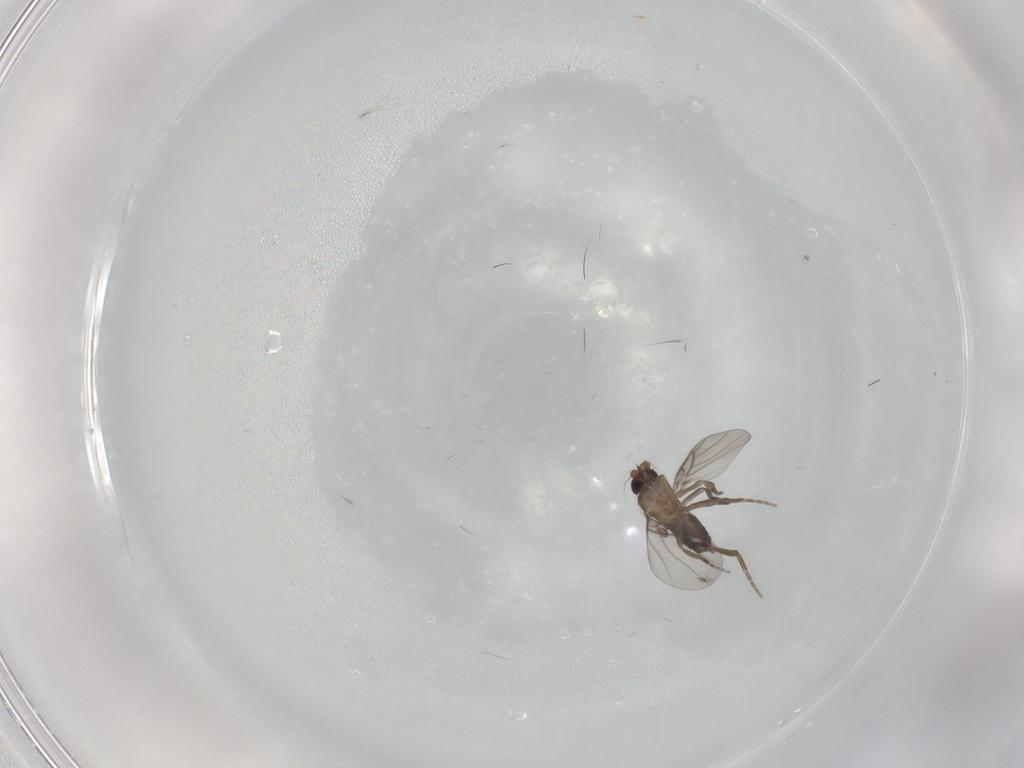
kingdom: Animalia
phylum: Arthropoda
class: Insecta
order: Diptera
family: Phoridae
